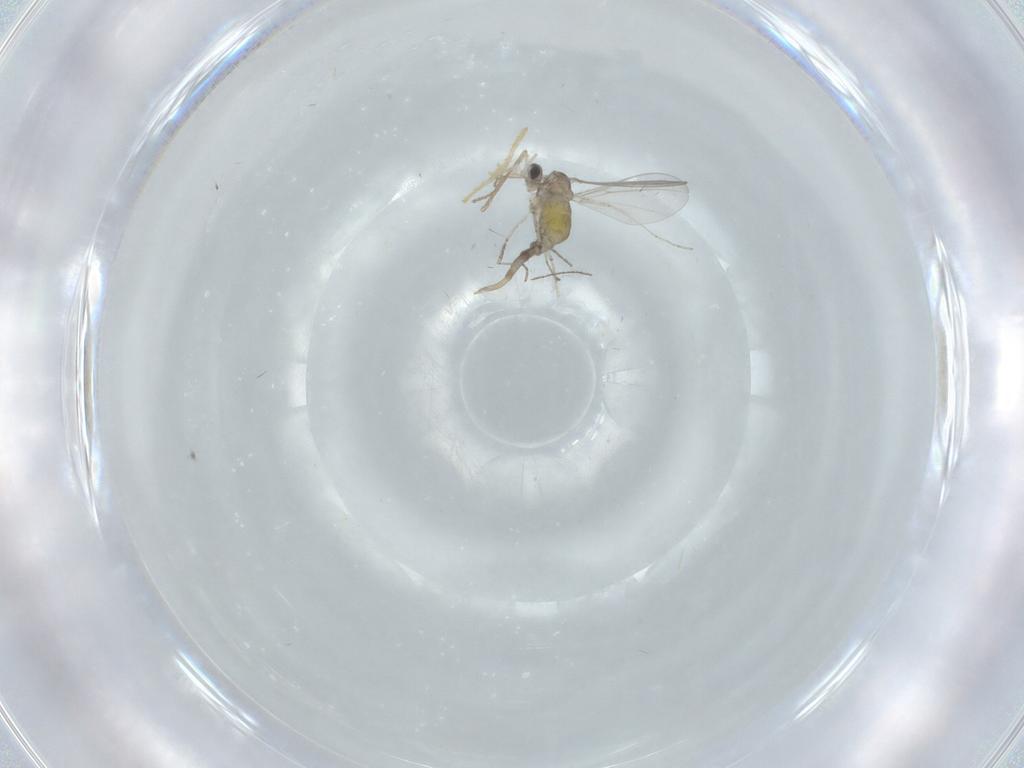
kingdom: Animalia
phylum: Arthropoda
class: Insecta
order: Diptera
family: Cecidomyiidae
